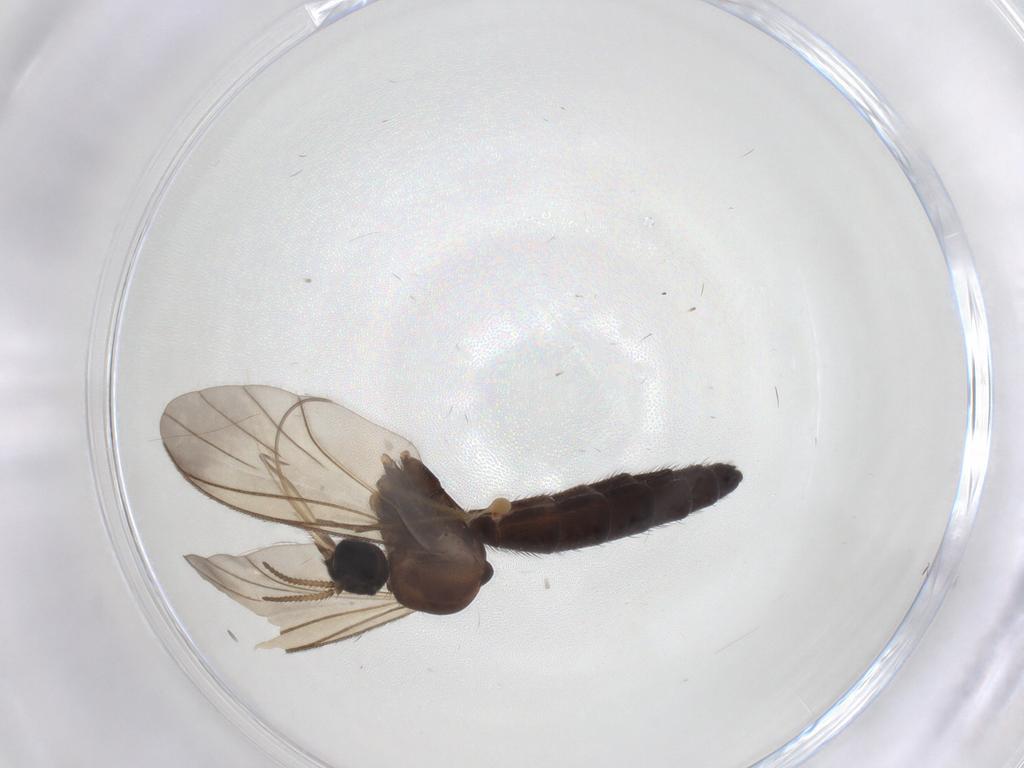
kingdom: Animalia
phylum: Arthropoda
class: Insecta
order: Diptera
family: Keroplatidae
